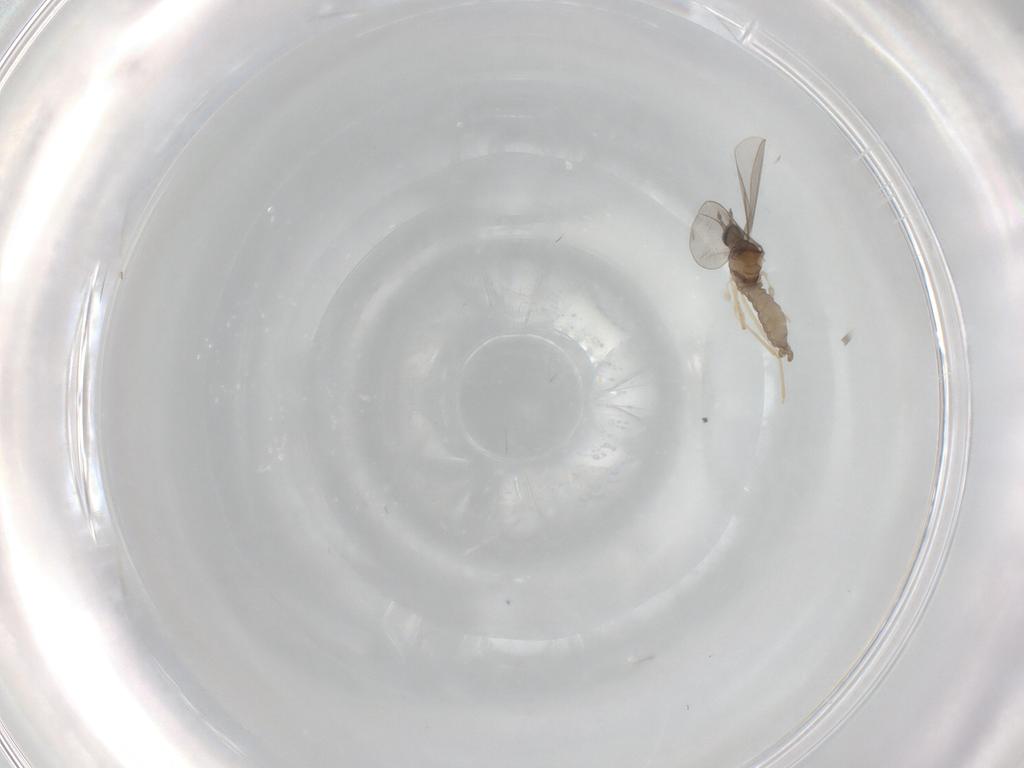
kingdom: Animalia
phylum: Arthropoda
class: Insecta
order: Diptera
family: Chironomidae
